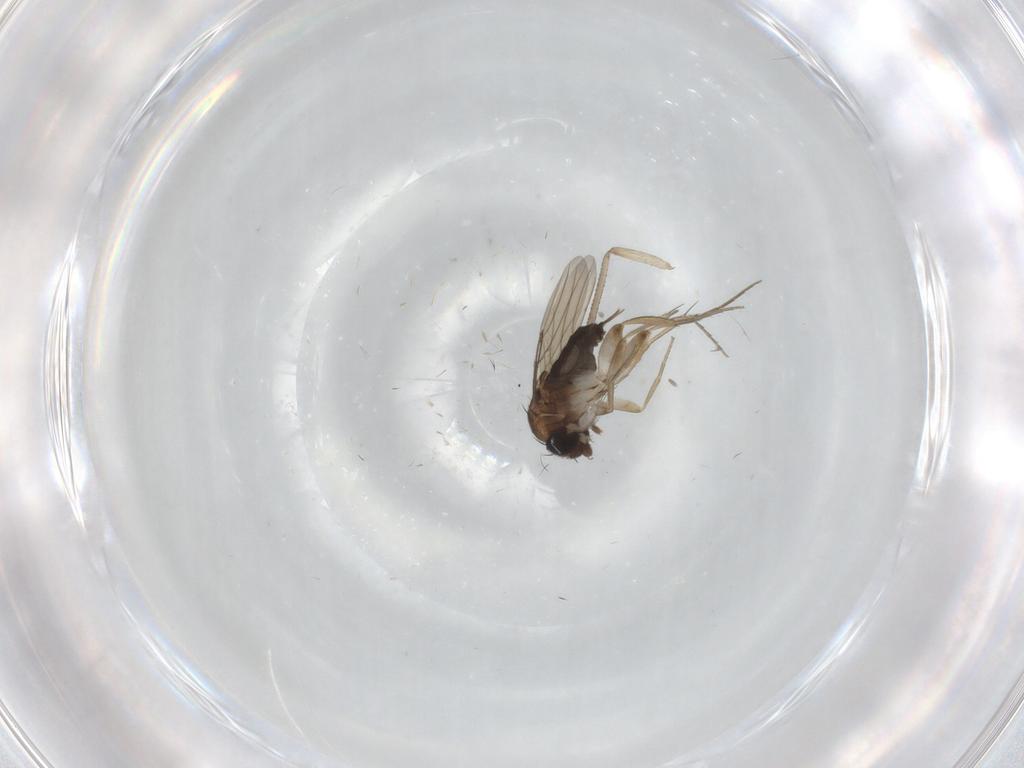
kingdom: Animalia
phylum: Arthropoda
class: Insecta
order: Diptera
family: Phoridae
